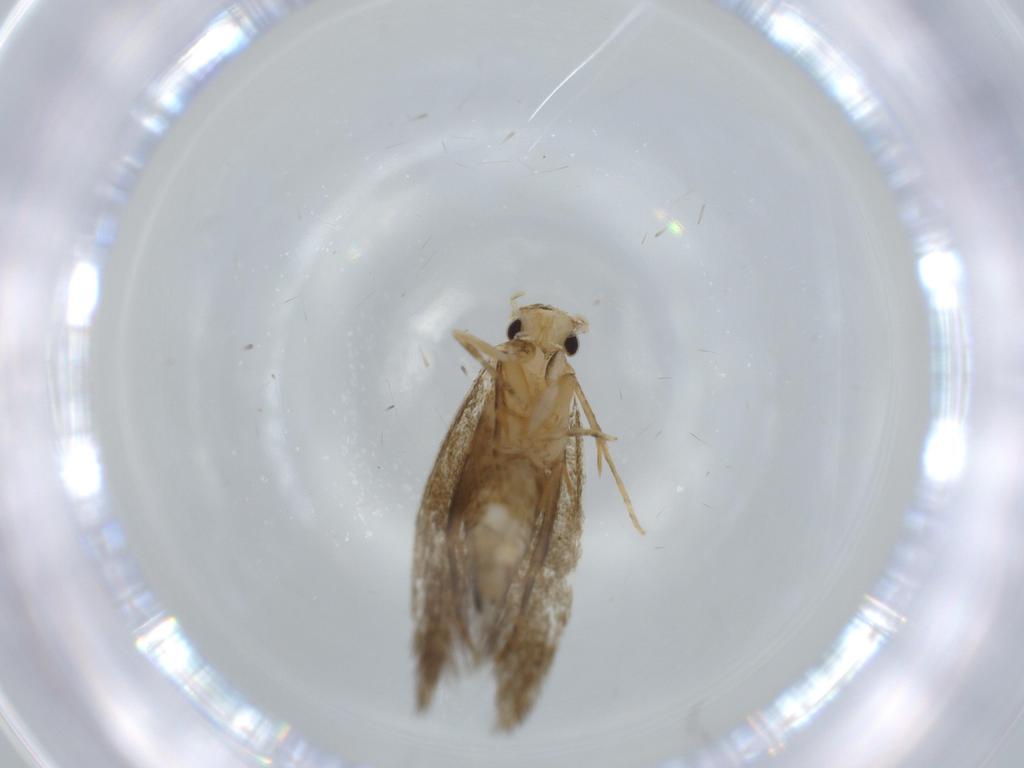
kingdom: Animalia
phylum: Arthropoda
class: Insecta
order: Lepidoptera
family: Tineidae
